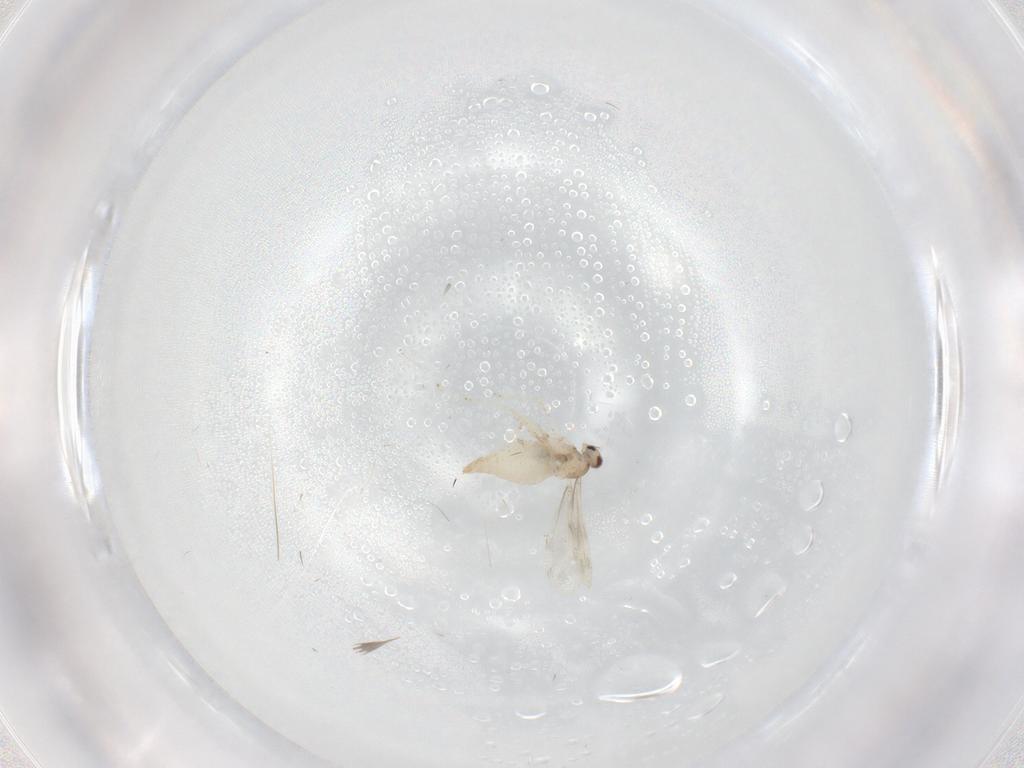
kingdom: Animalia
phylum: Arthropoda
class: Insecta
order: Diptera
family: Cecidomyiidae
